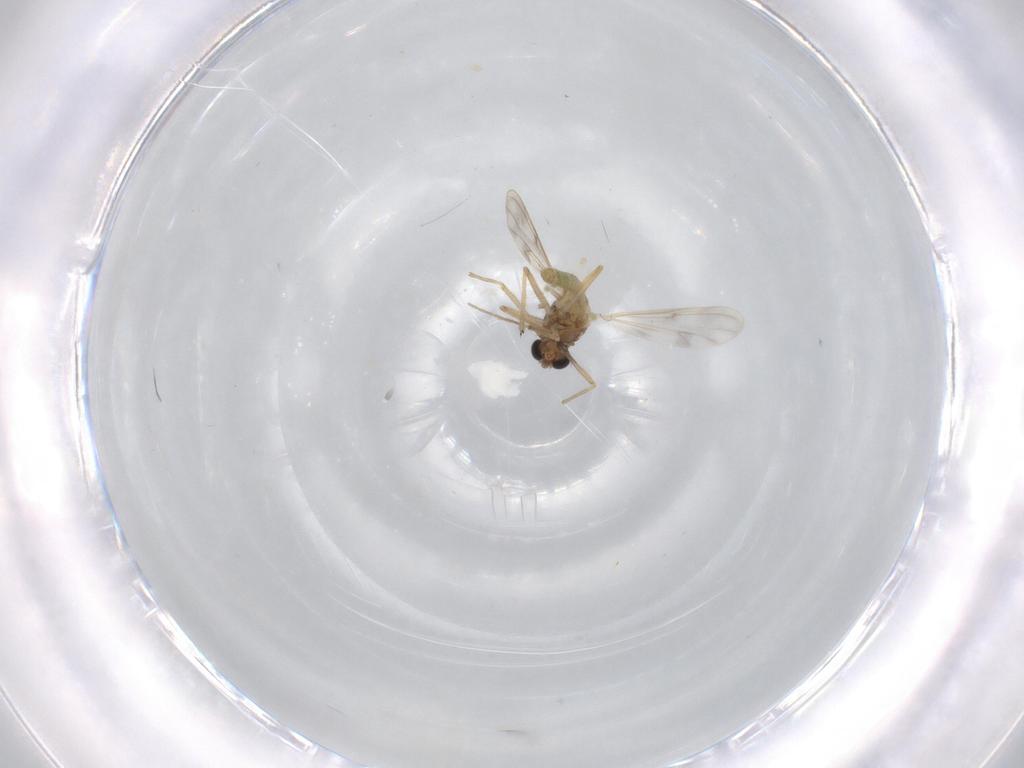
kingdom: Animalia
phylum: Arthropoda
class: Insecta
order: Diptera
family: Chironomidae
